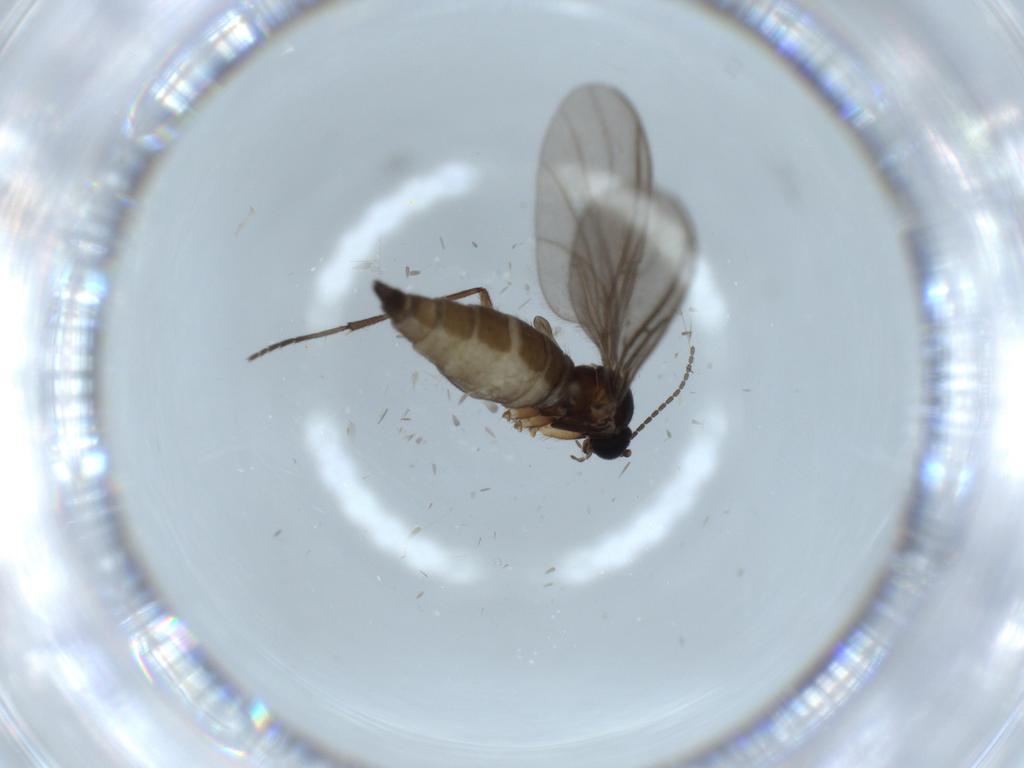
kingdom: Animalia
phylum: Arthropoda
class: Insecta
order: Diptera
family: Sciaridae
